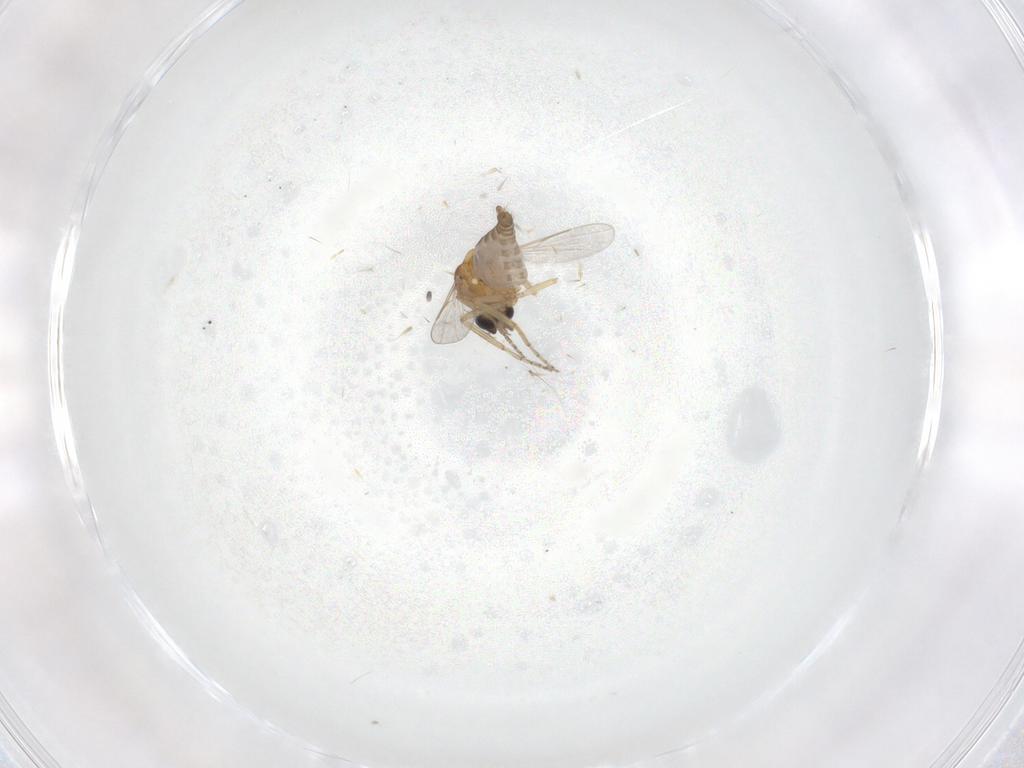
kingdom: Animalia
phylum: Arthropoda
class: Insecta
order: Diptera
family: Ceratopogonidae
